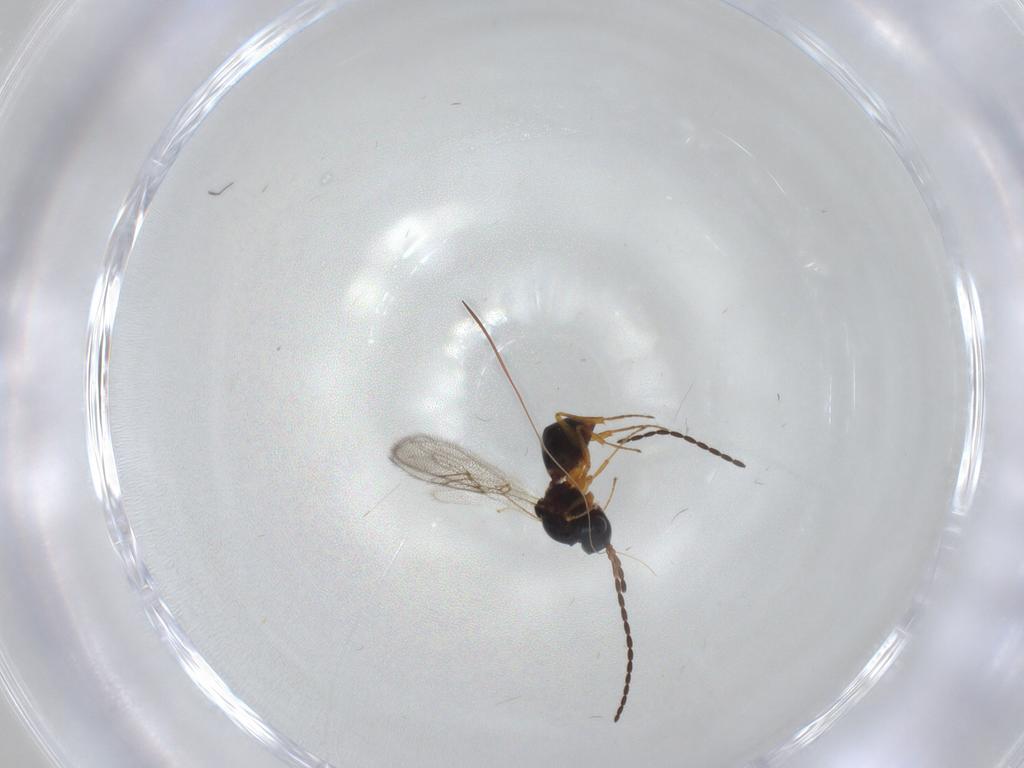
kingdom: Animalia
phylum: Arthropoda
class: Insecta
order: Hymenoptera
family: Figitidae
